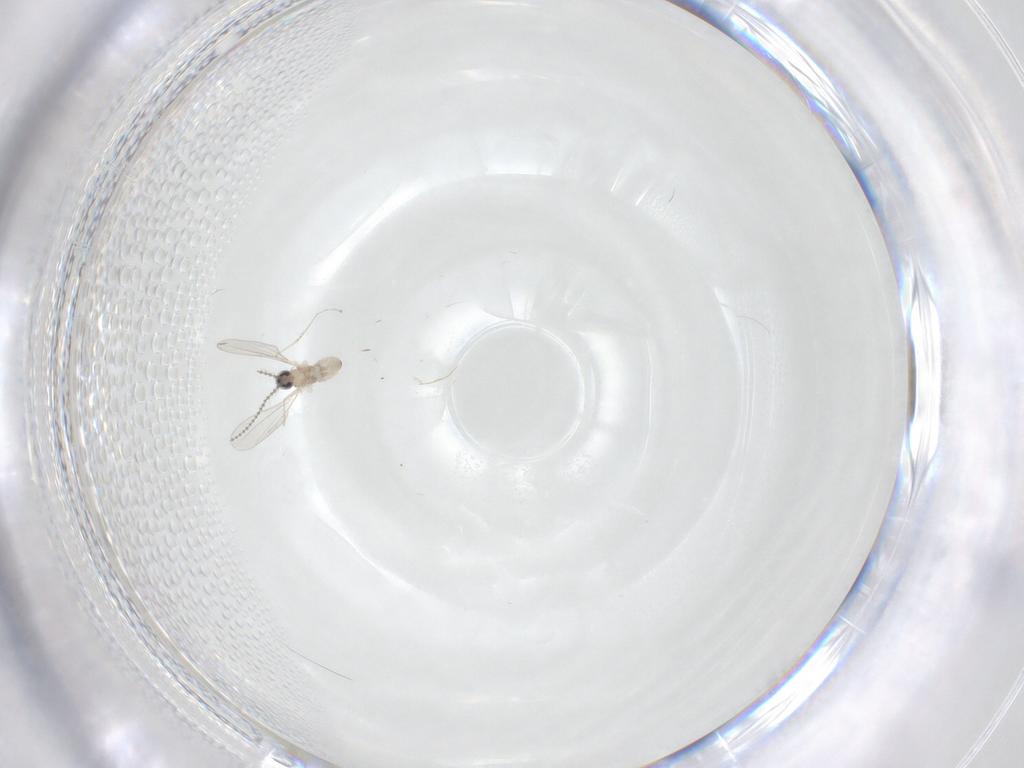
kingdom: Animalia
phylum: Arthropoda
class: Insecta
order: Diptera
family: Cecidomyiidae
